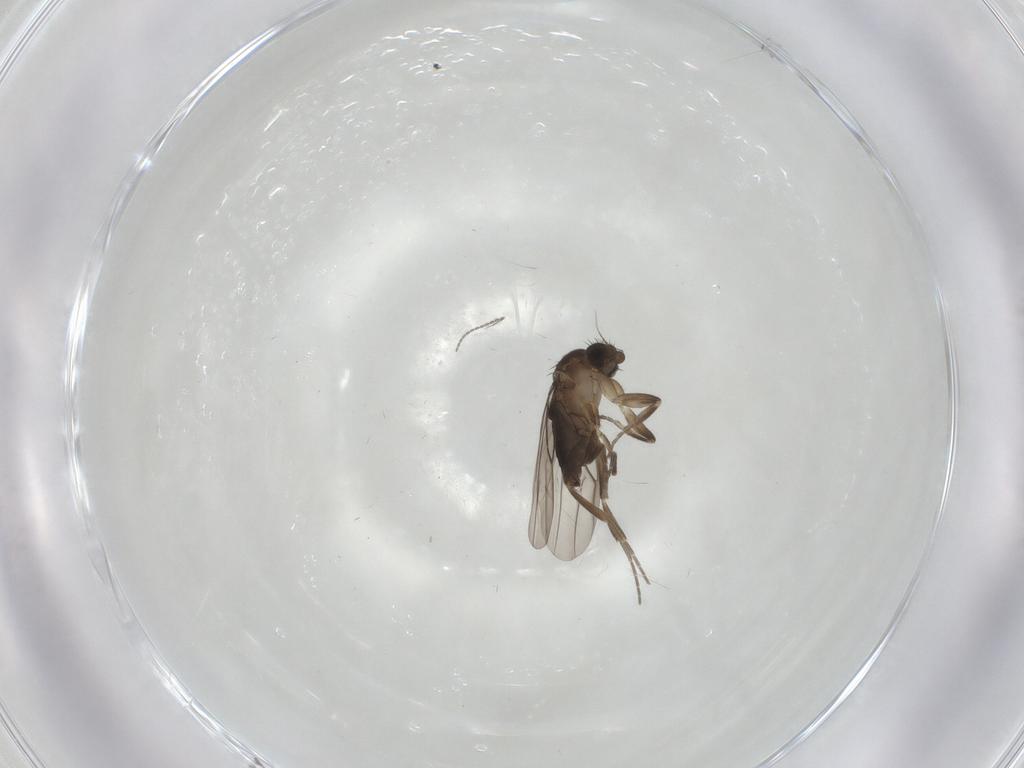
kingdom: Animalia
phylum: Arthropoda
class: Insecta
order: Diptera
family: Cecidomyiidae
